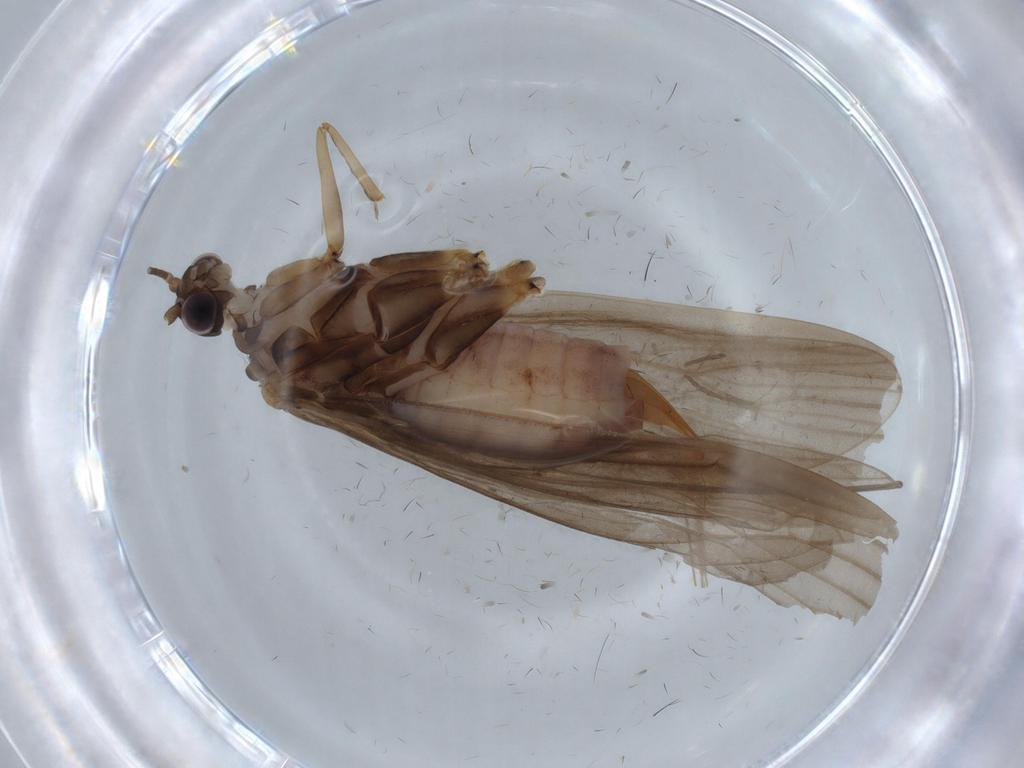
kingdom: Animalia
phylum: Arthropoda
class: Insecta
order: Trichoptera
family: Psychomyiidae
